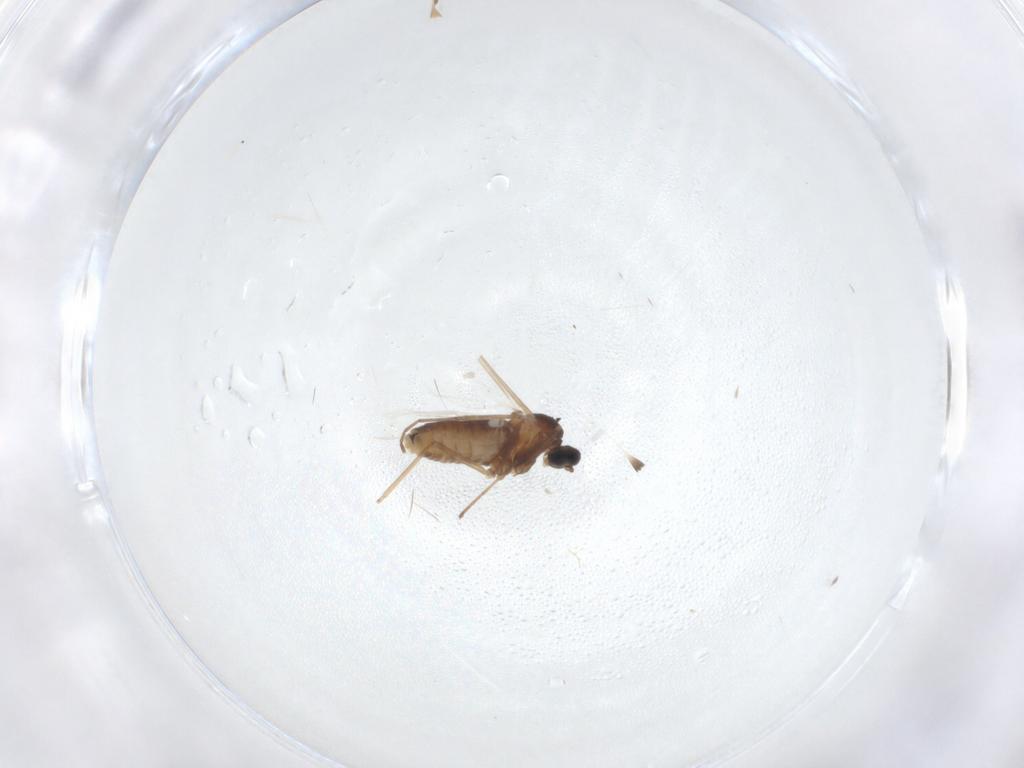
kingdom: Animalia
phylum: Arthropoda
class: Insecta
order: Diptera
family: Cecidomyiidae
